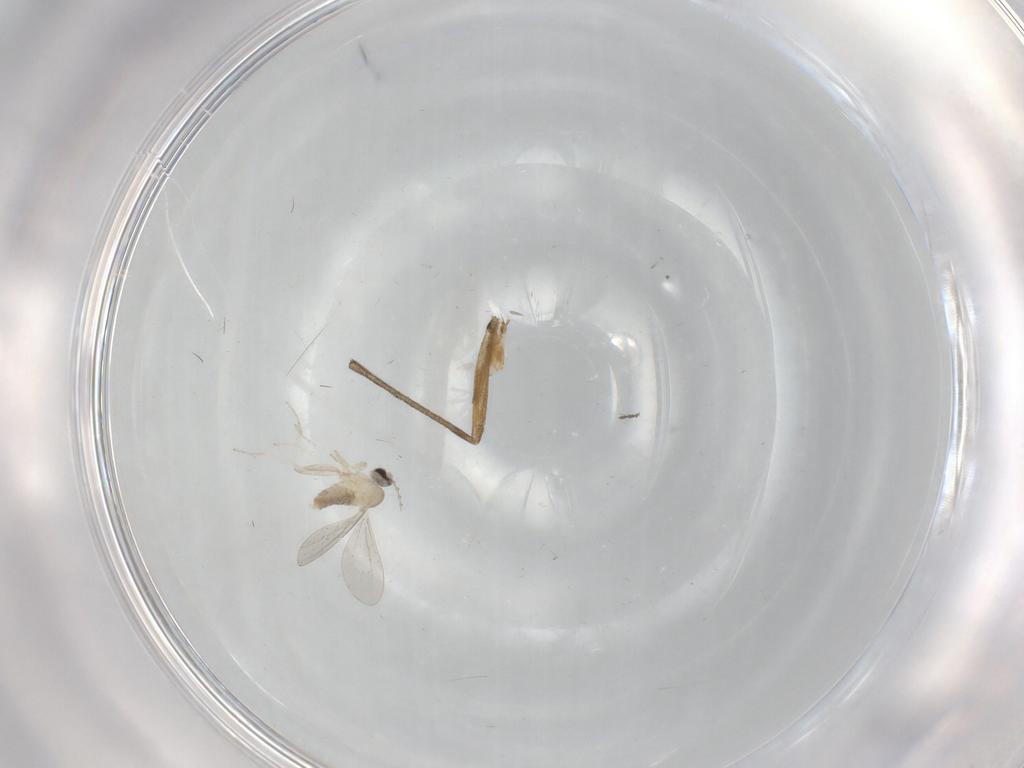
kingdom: Animalia
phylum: Arthropoda
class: Insecta
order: Diptera
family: Cecidomyiidae
